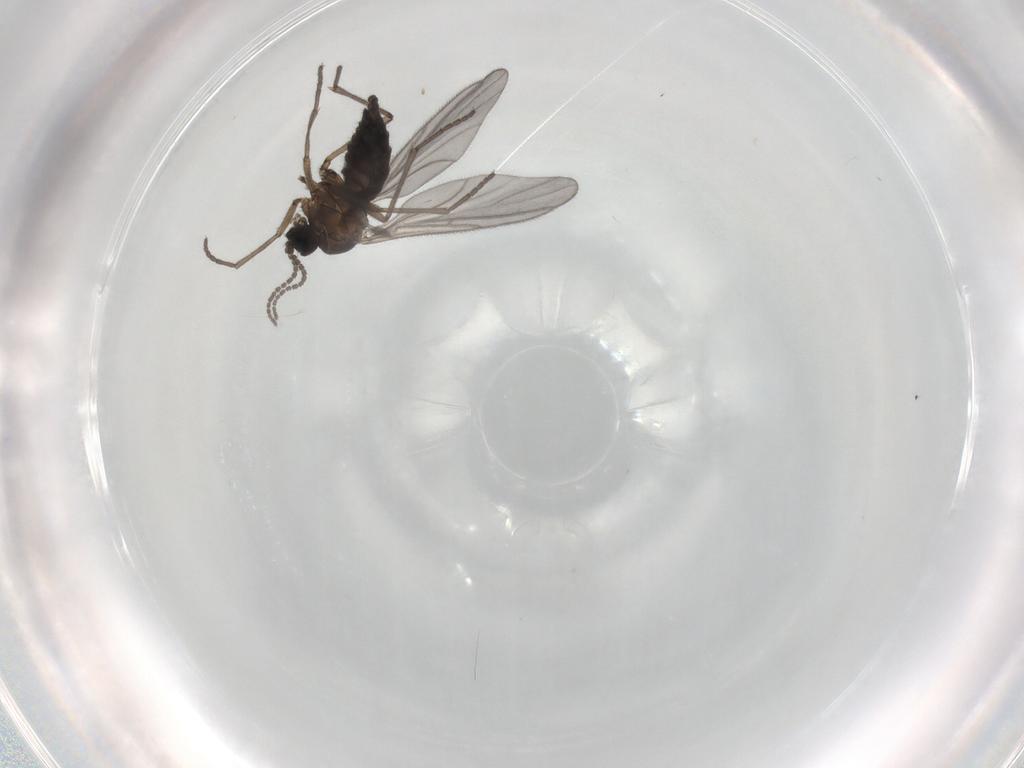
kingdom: Animalia
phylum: Arthropoda
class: Insecta
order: Diptera
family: Sciaridae
